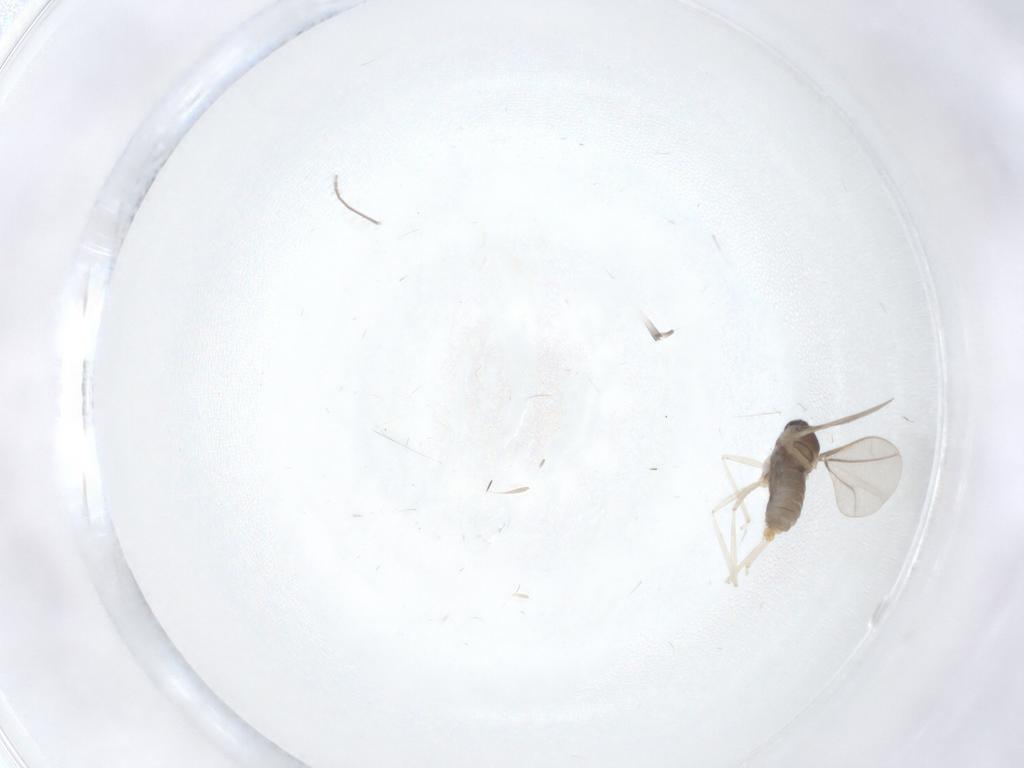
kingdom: Animalia
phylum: Arthropoda
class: Insecta
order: Diptera
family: Cecidomyiidae
